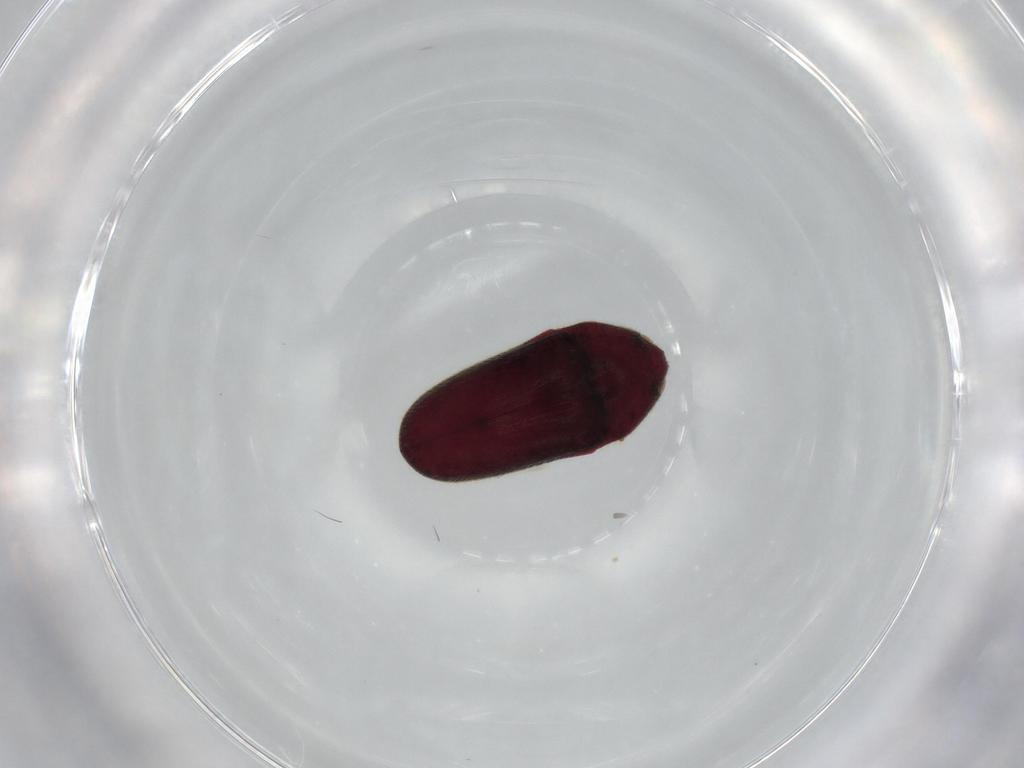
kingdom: Animalia
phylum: Arthropoda
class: Insecta
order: Coleoptera
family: Throscidae
